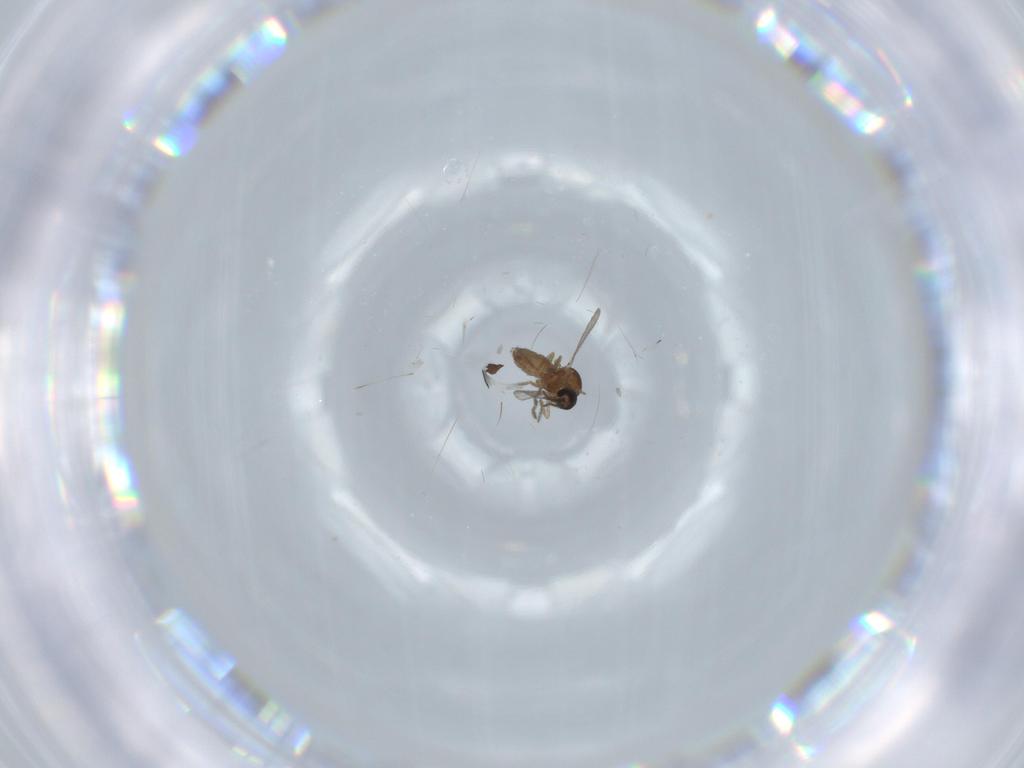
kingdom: Animalia
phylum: Arthropoda
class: Insecta
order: Diptera
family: Ceratopogonidae
